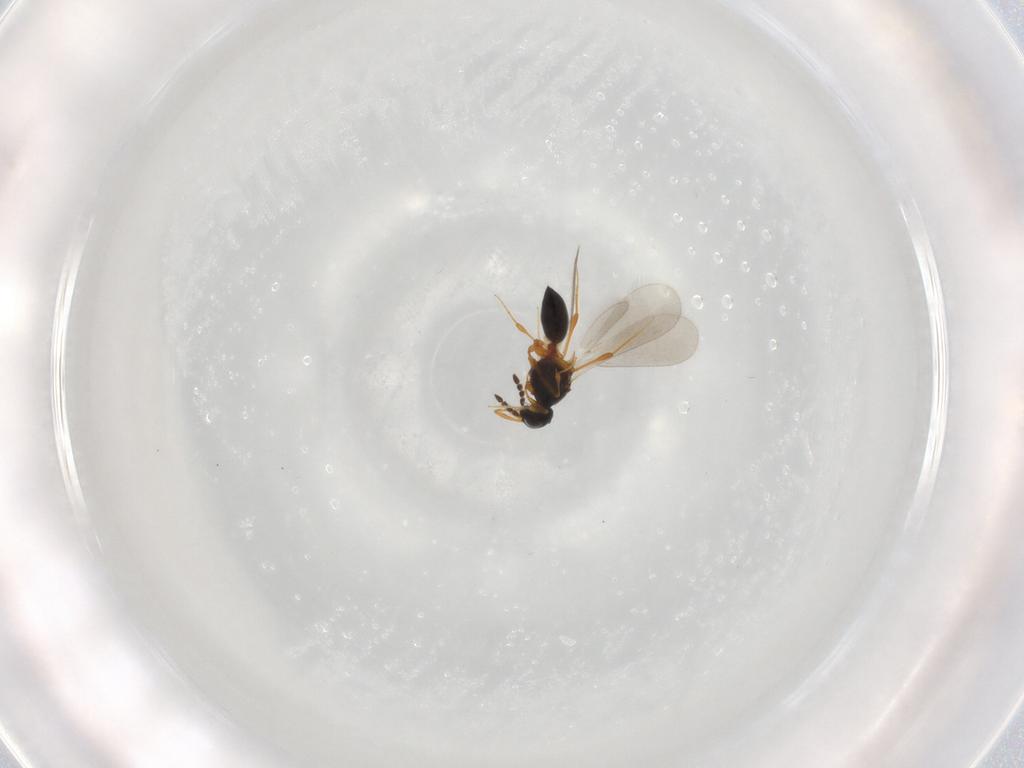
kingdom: Animalia
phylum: Arthropoda
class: Insecta
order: Hymenoptera
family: Platygastridae
